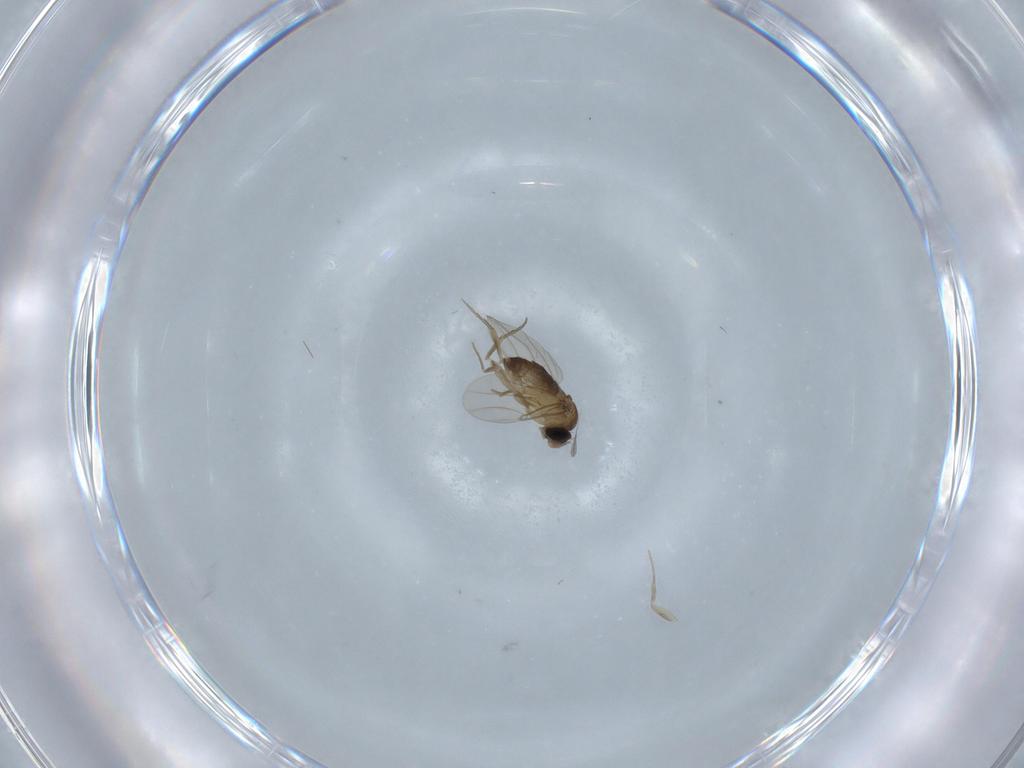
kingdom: Animalia
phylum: Arthropoda
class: Insecta
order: Diptera
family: Phoridae
